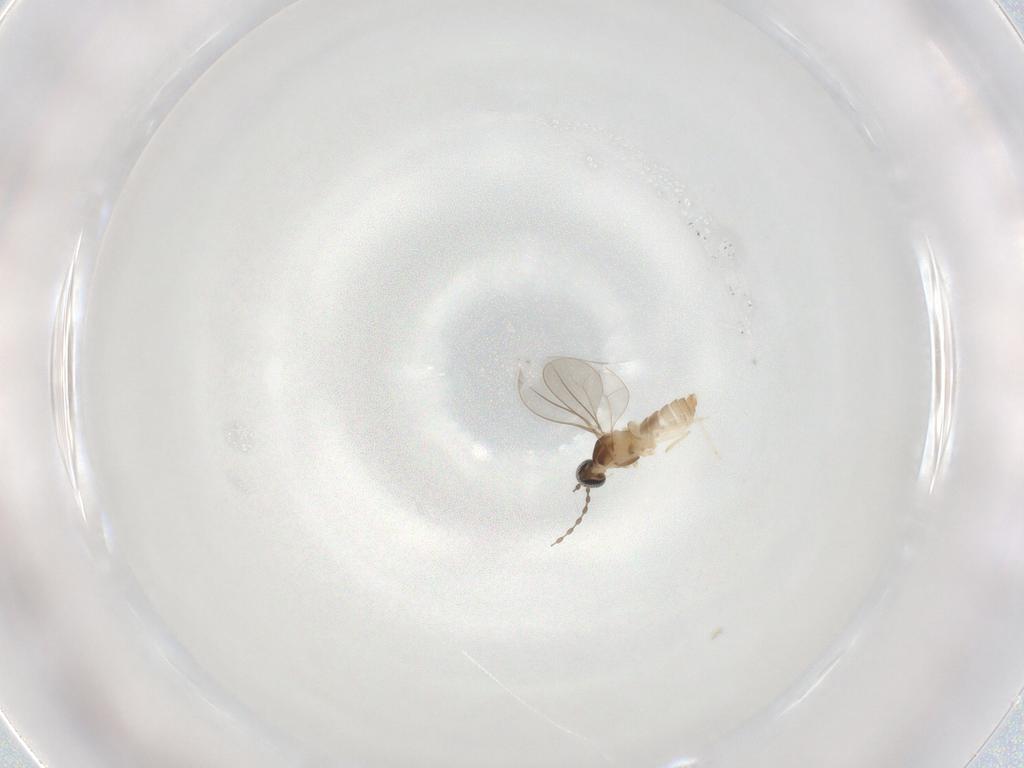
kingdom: Animalia
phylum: Arthropoda
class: Insecta
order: Diptera
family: Cecidomyiidae
